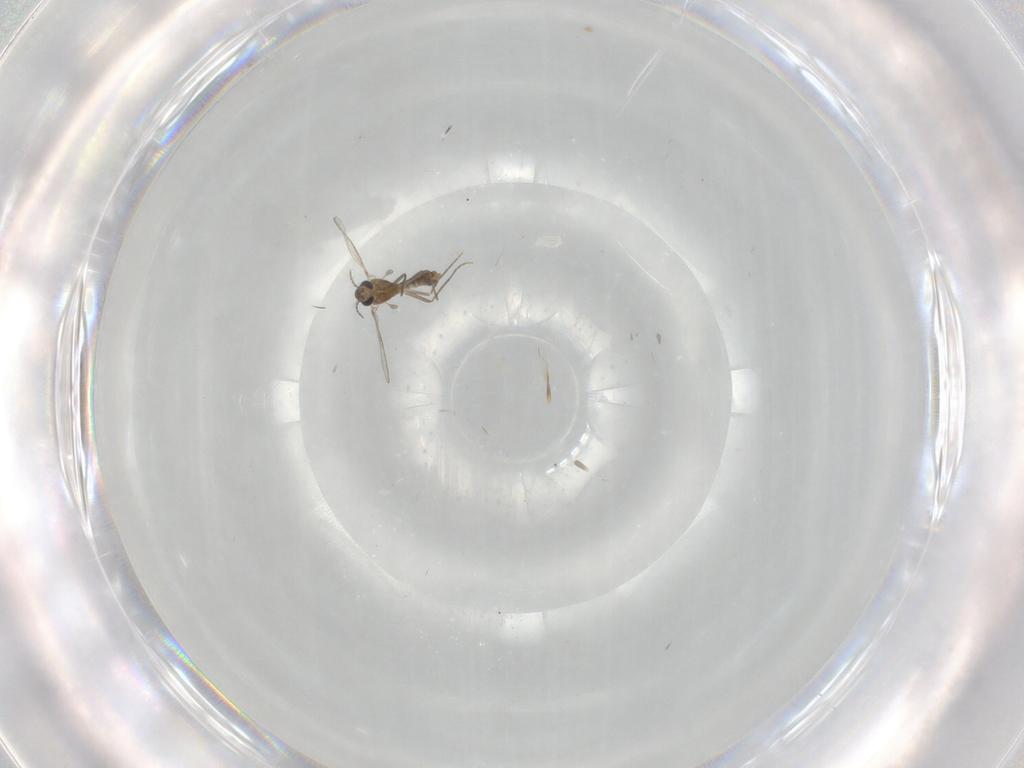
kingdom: Animalia
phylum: Arthropoda
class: Insecta
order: Diptera
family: Chironomidae
